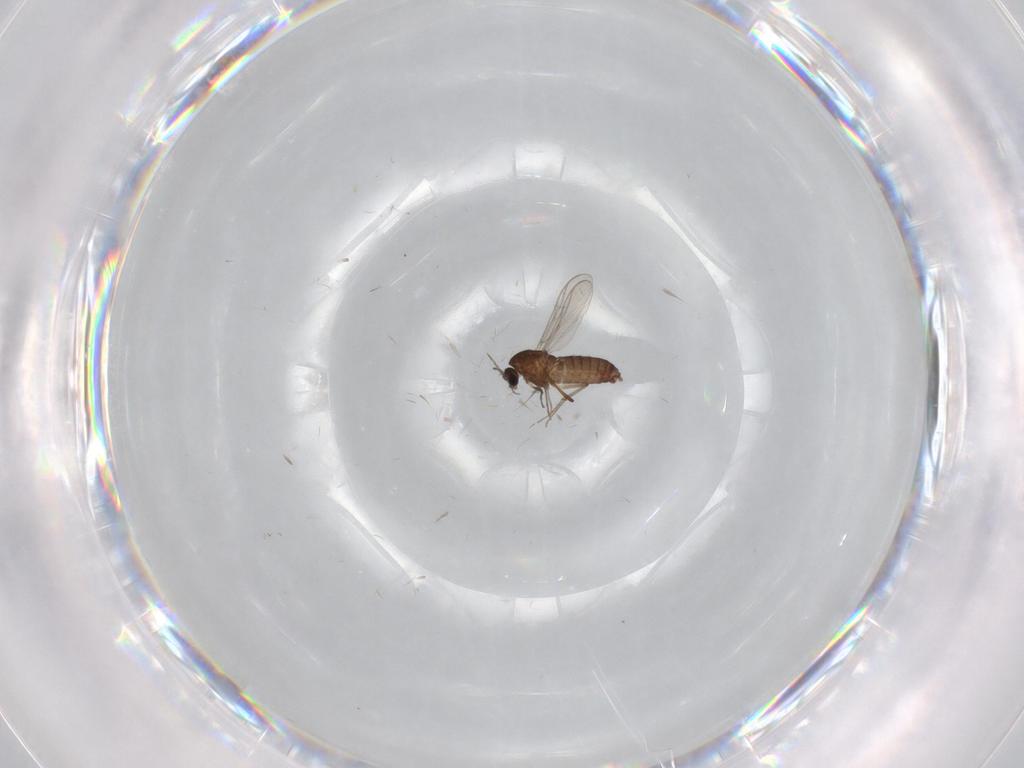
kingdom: Animalia
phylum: Arthropoda
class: Insecta
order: Diptera
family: Chironomidae
